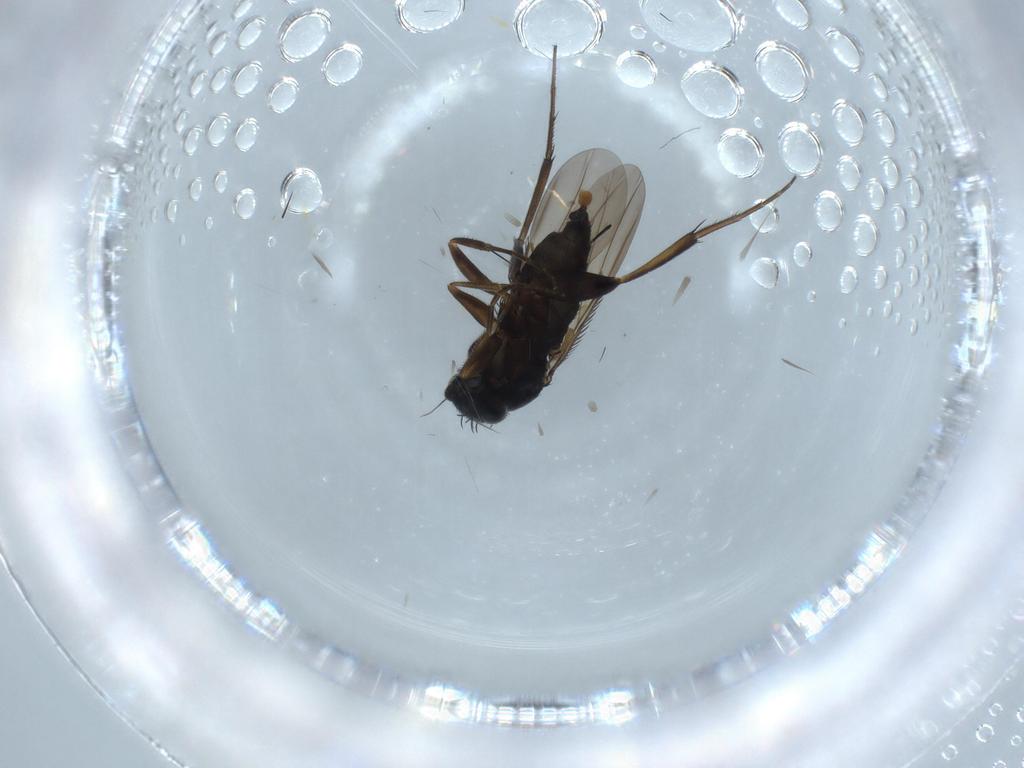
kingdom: Animalia
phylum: Arthropoda
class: Insecta
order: Diptera
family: Phoridae
